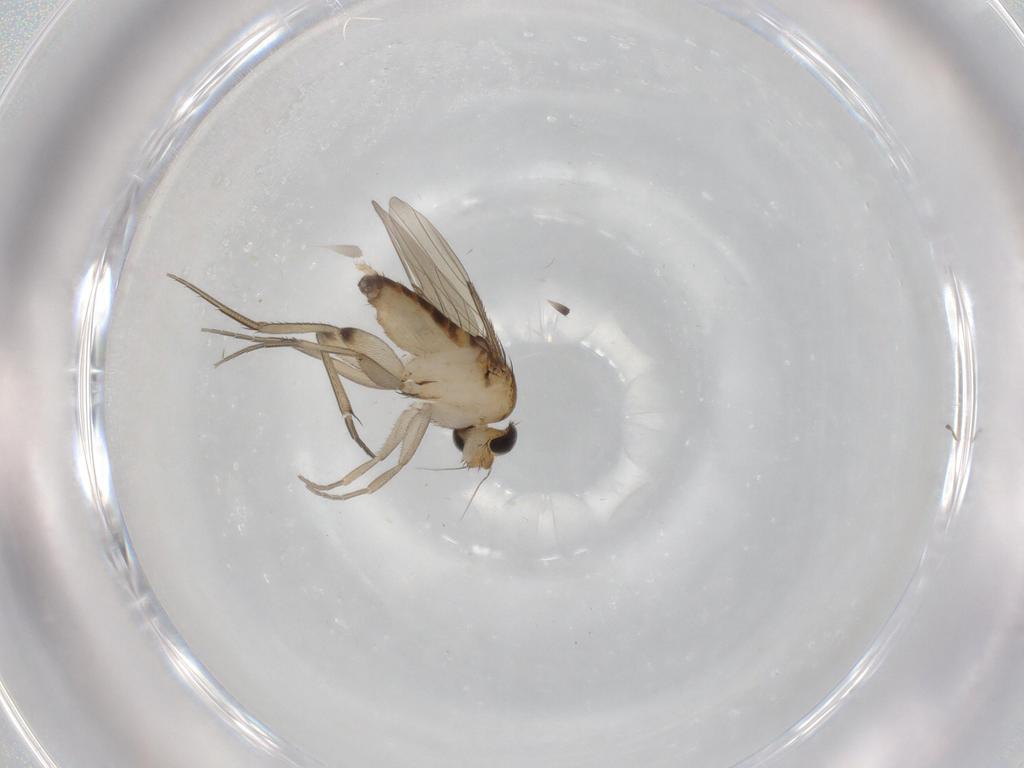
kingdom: Animalia
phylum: Arthropoda
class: Insecta
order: Diptera
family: Phoridae
